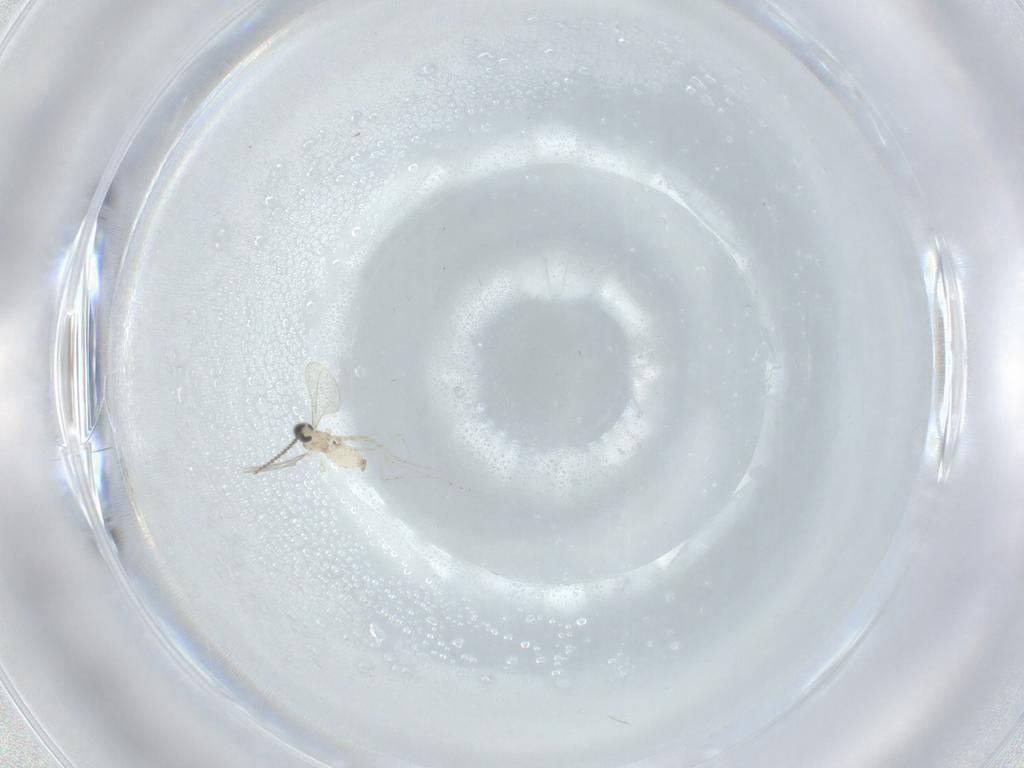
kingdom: Animalia
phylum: Arthropoda
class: Insecta
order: Diptera
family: Cecidomyiidae
